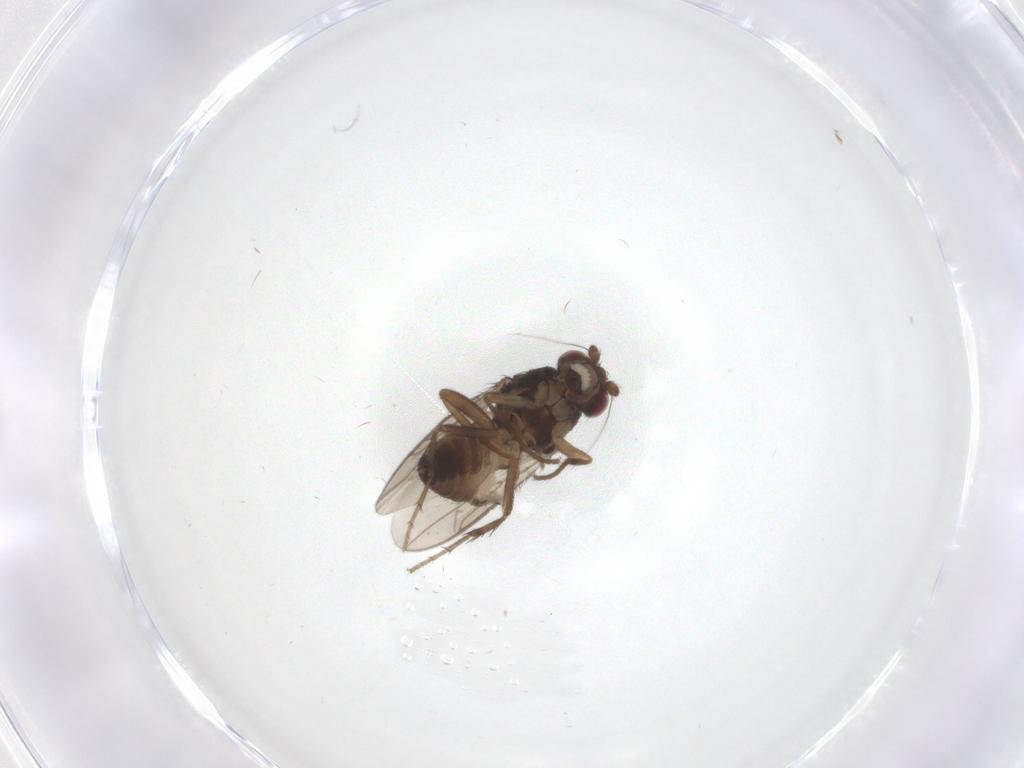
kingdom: Animalia
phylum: Arthropoda
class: Insecta
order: Diptera
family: Sphaeroceridae
